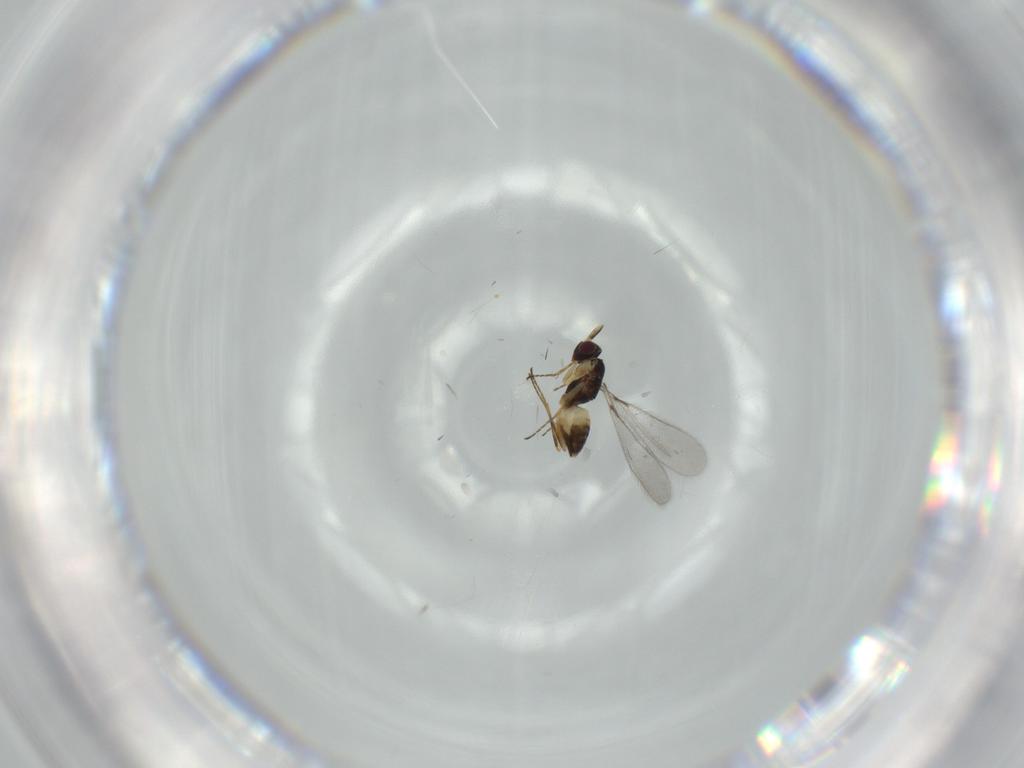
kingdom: Animalia
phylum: Arthropoda
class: Insecta
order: Hymenoptera
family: Mymaridae
